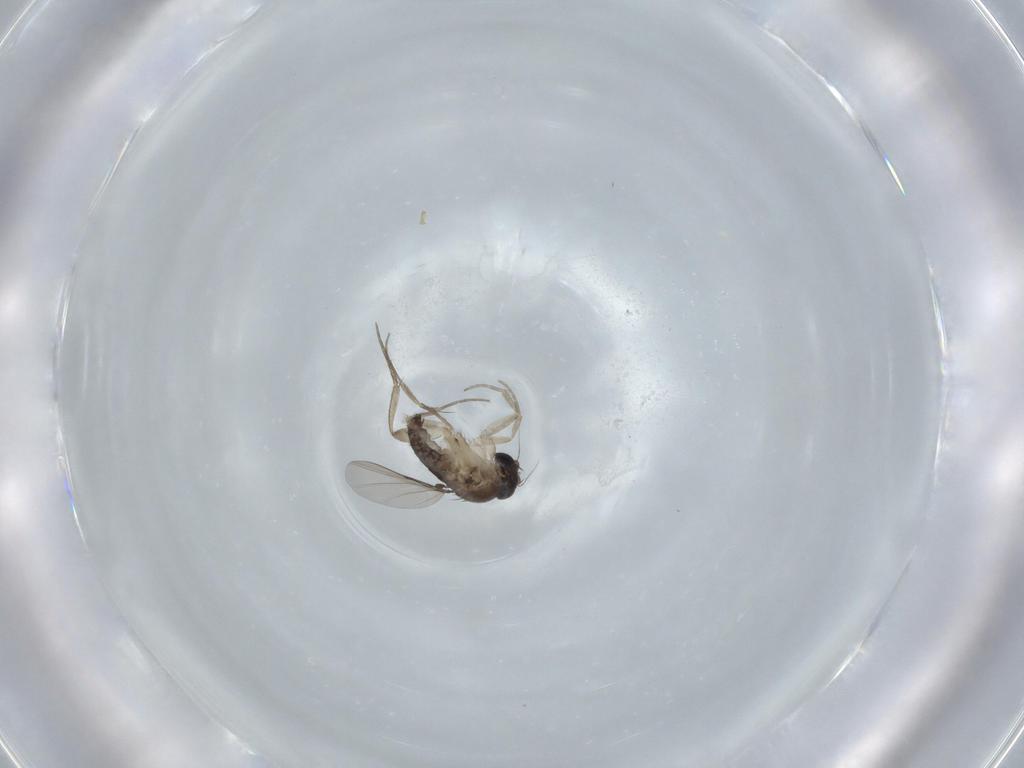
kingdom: Animalia
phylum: Arthropoda
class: Insecta
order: Diptera
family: Phoridae
